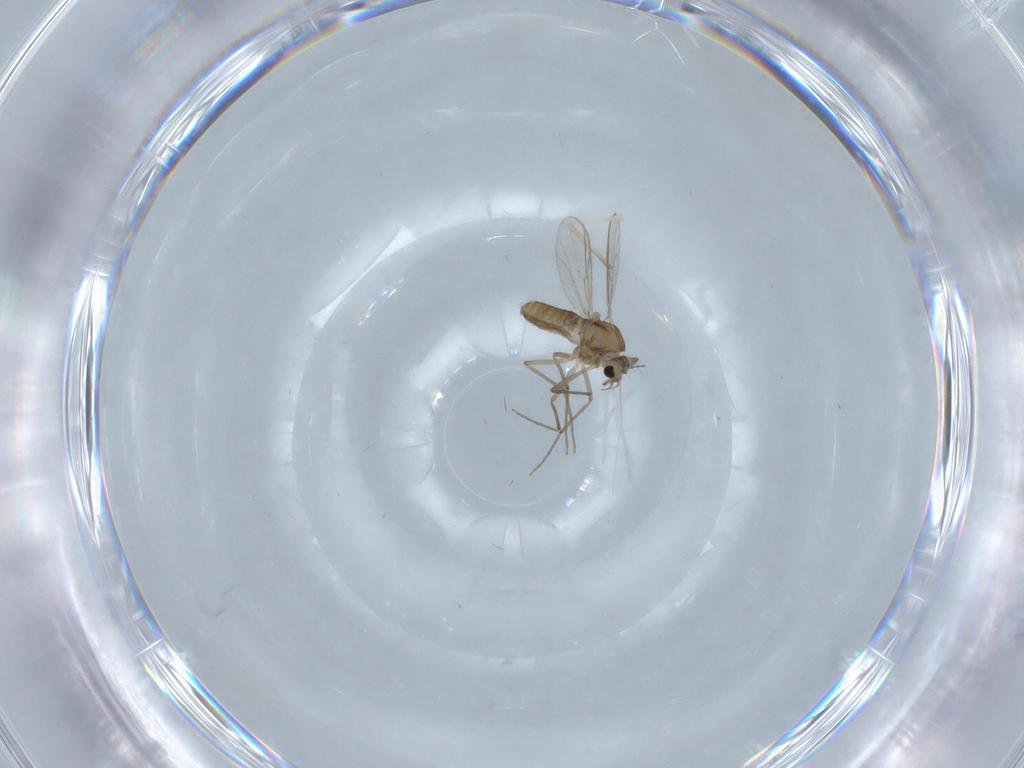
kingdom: Animalia
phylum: Arthropoda
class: Insecta
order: Diptera
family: Chironomidae
